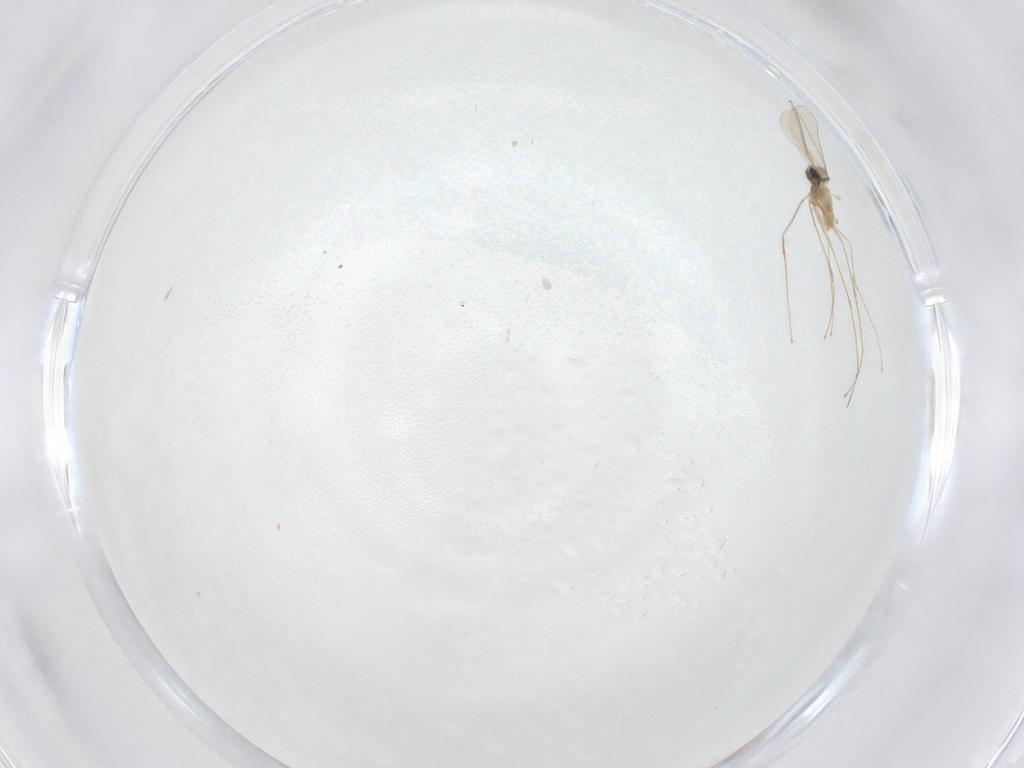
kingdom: Animalia
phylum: Arthropoda
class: Insecta
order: Diptera
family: Cecidomyiidae
